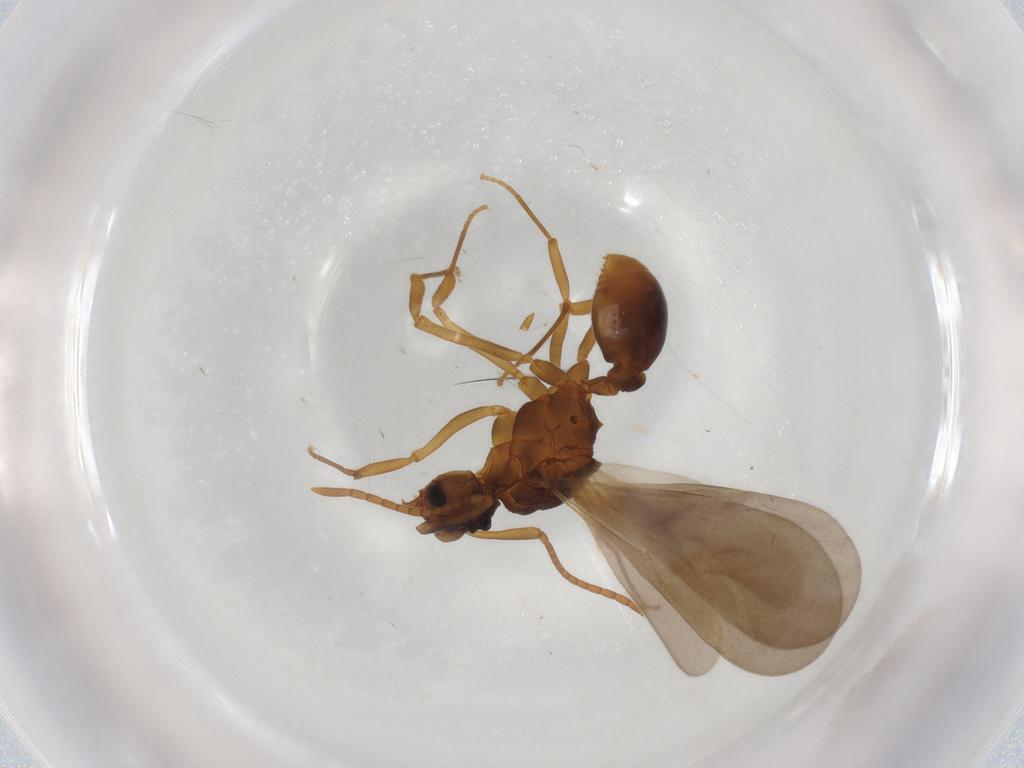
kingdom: Animalia
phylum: Arthropoda
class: Insecta
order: Hymenoptera
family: Formicidae
